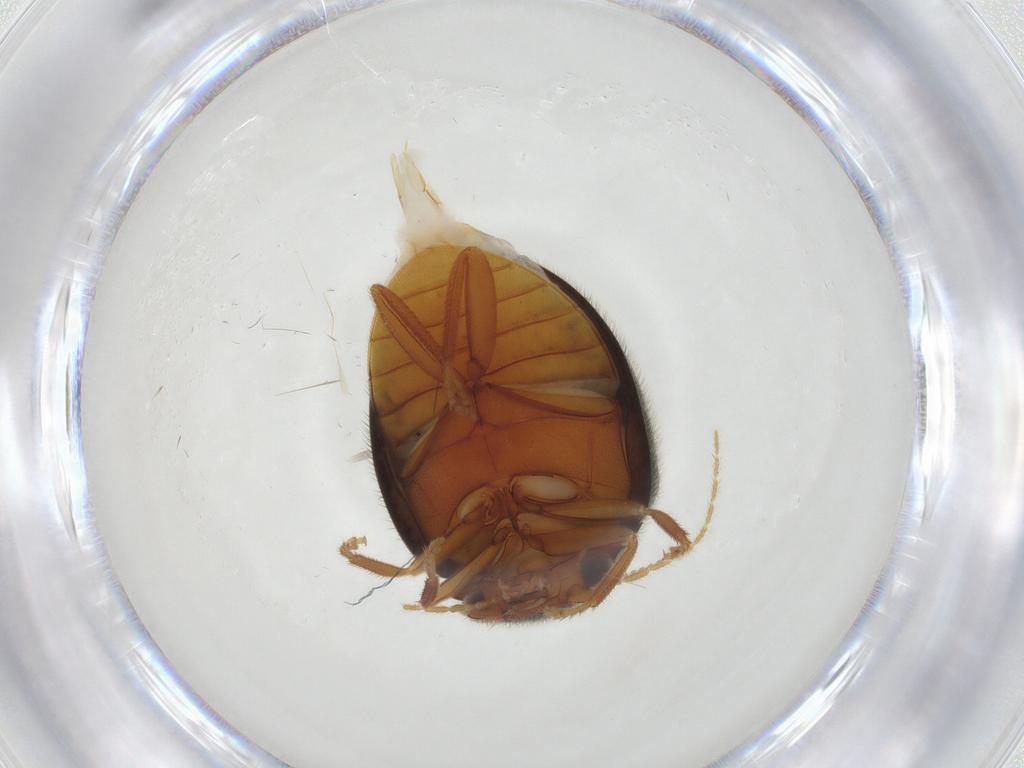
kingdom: Animalia
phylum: Arthropoda
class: Insecta
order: Coleoptera
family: Scirtidae
